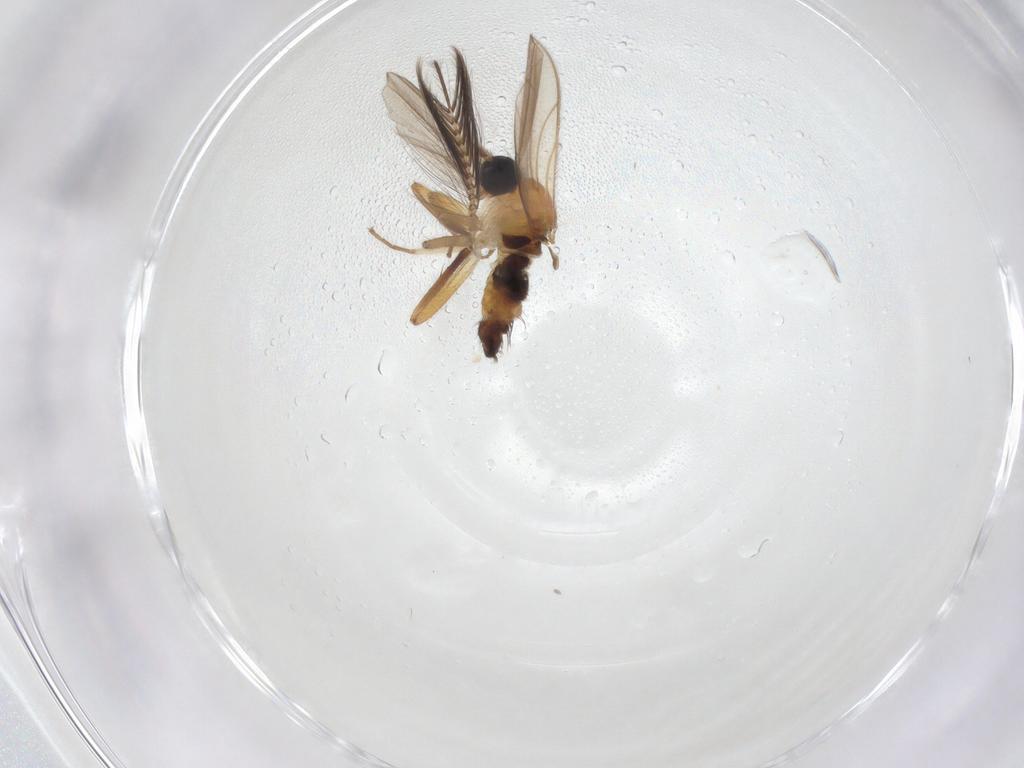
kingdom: Animalia
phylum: Arthropoda
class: Insecta
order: Diptera
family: Hybotidae
